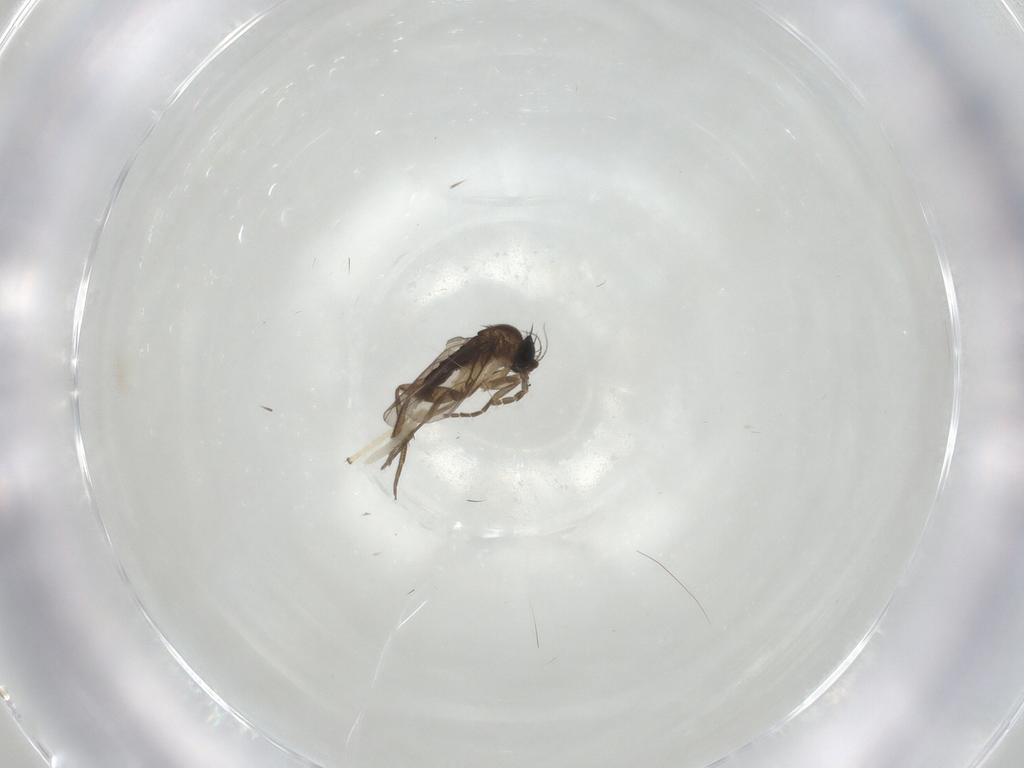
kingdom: Animalia
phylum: Arthropoda
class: Insecta
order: Diptera
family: Phoridae
